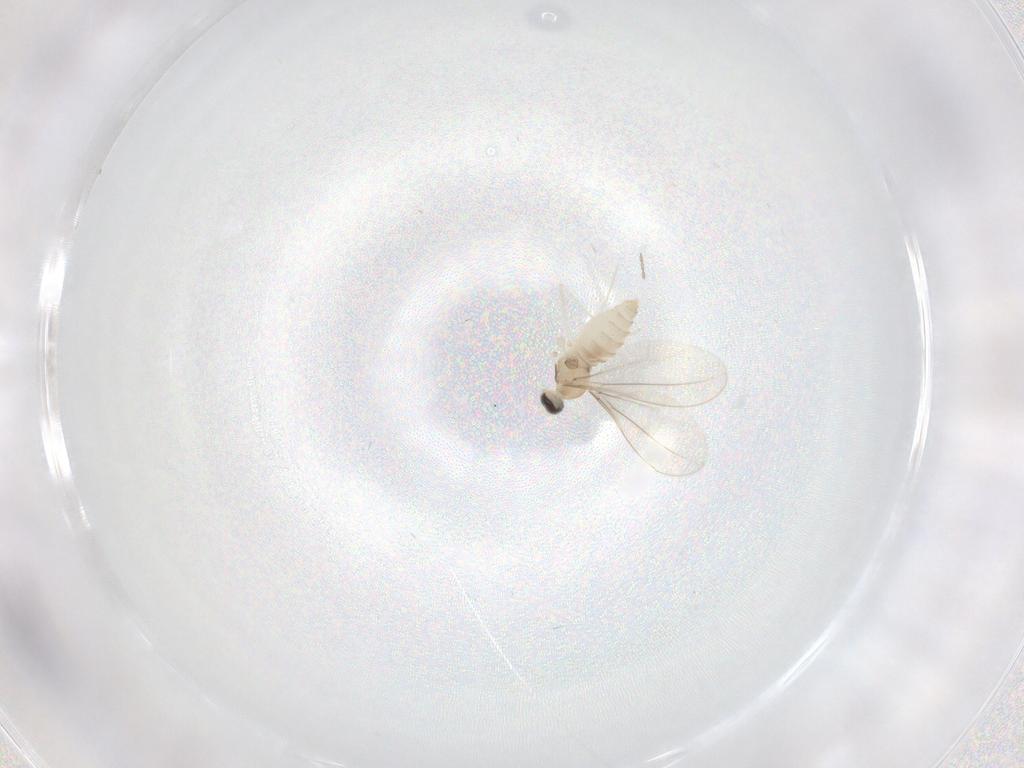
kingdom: Animalia
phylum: Arthropoda
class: Insecta
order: Diptera
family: Cecidomyiidae
